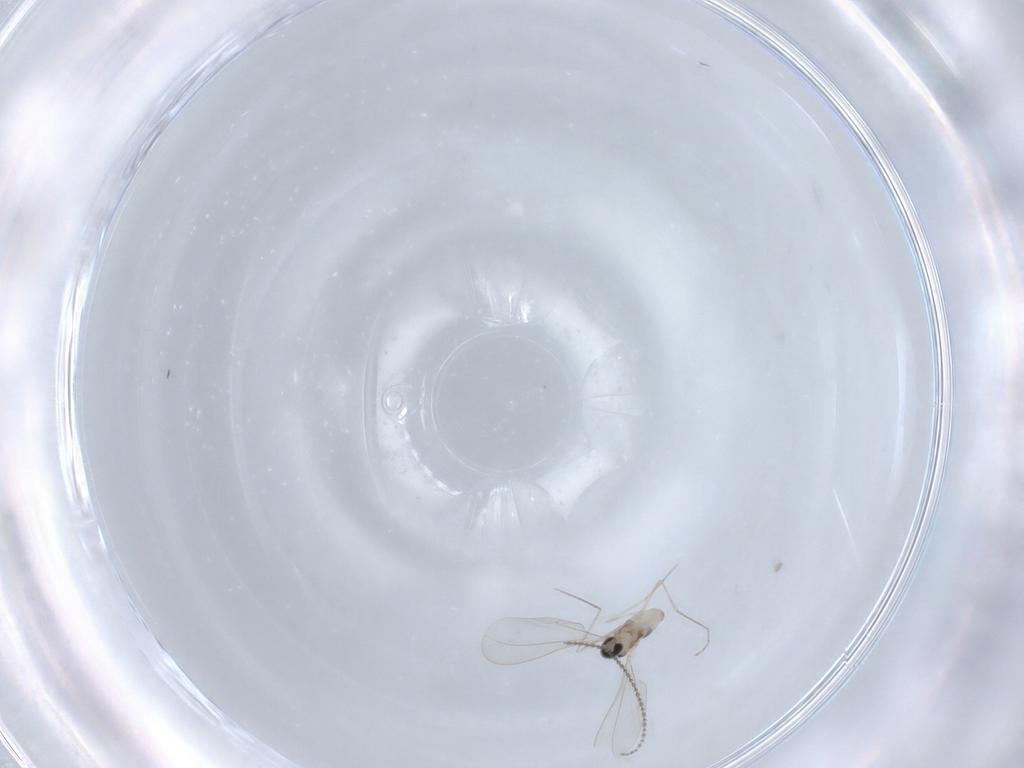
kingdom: Animalia
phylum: Arthropoda
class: Insecta
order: Diptera
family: Cecidomyiidae
